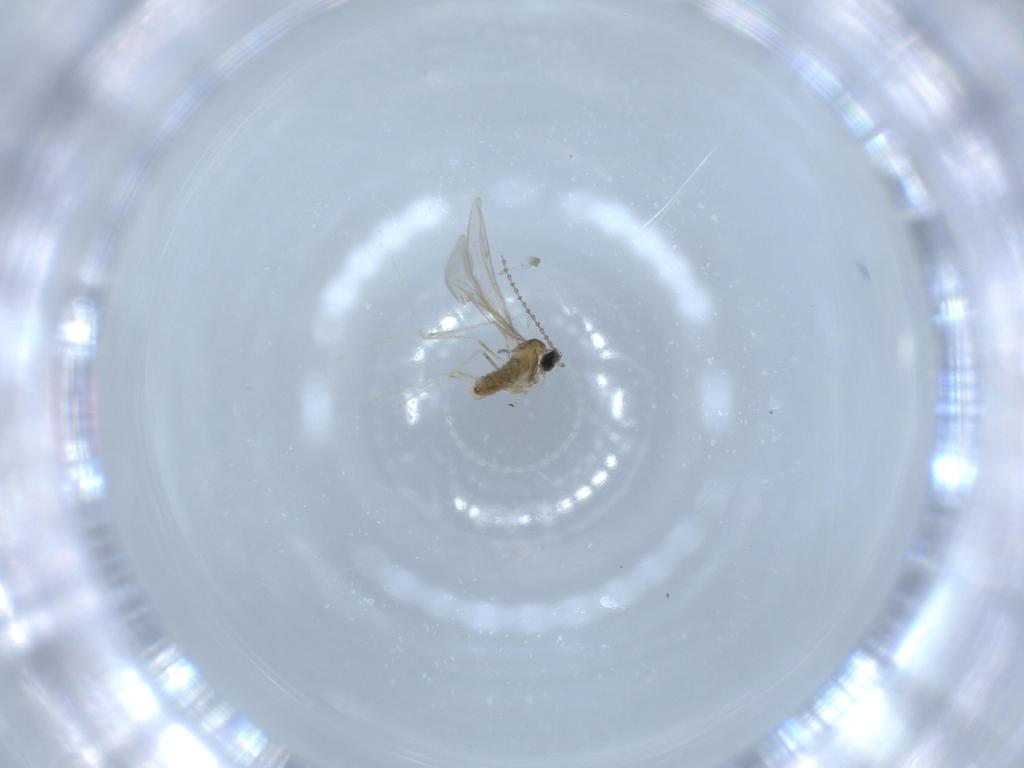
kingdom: Animalia
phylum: Arthropoda
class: Insecta
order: Diptera
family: Cecidomyiidae
